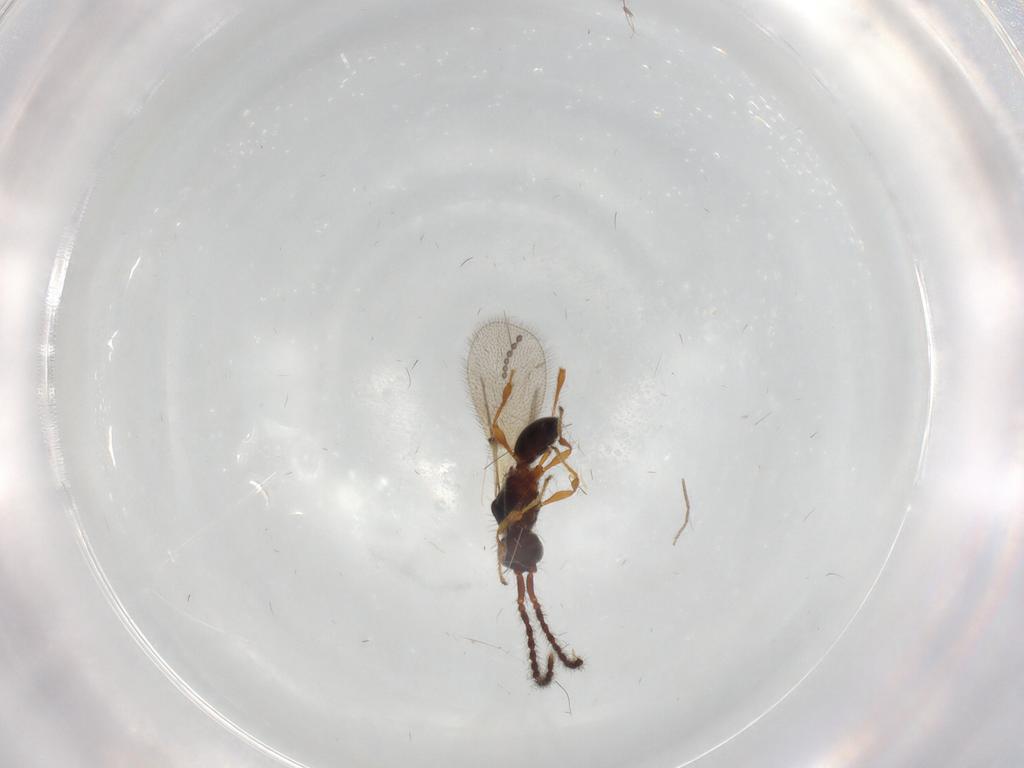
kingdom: Animalia
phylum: Arthropoda
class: Insecta
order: Hymenoptera
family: Diapriidae
